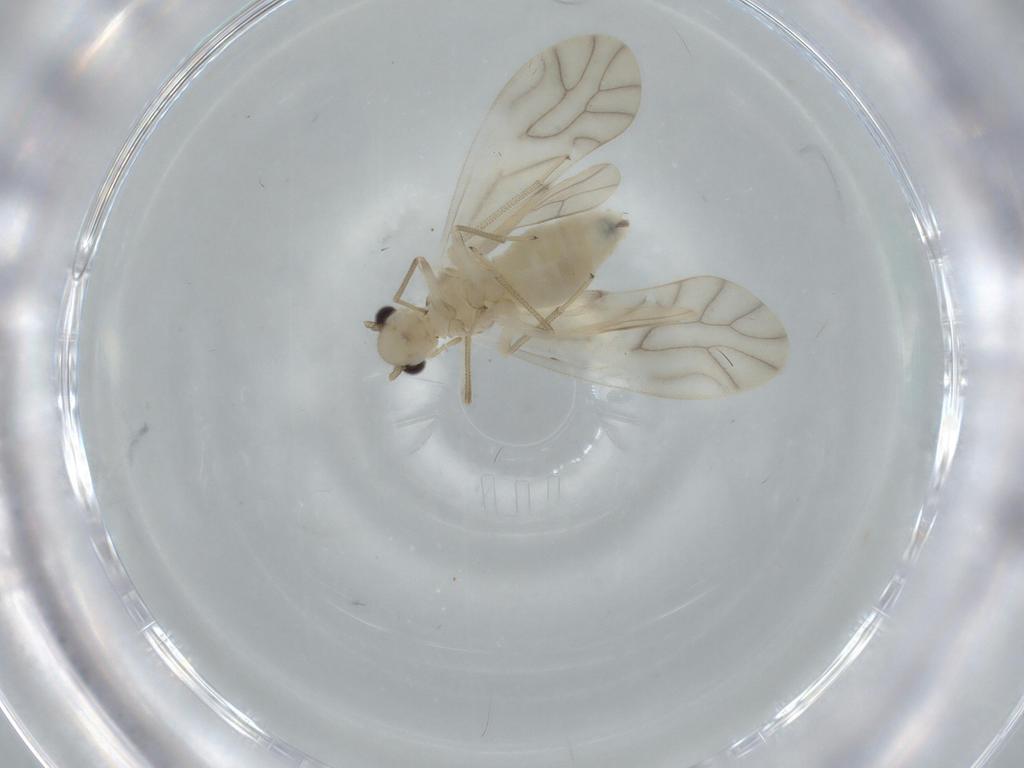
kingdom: Animalia
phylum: Arthropoda
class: Insecta
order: Psocodea
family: Caeciliusidae
